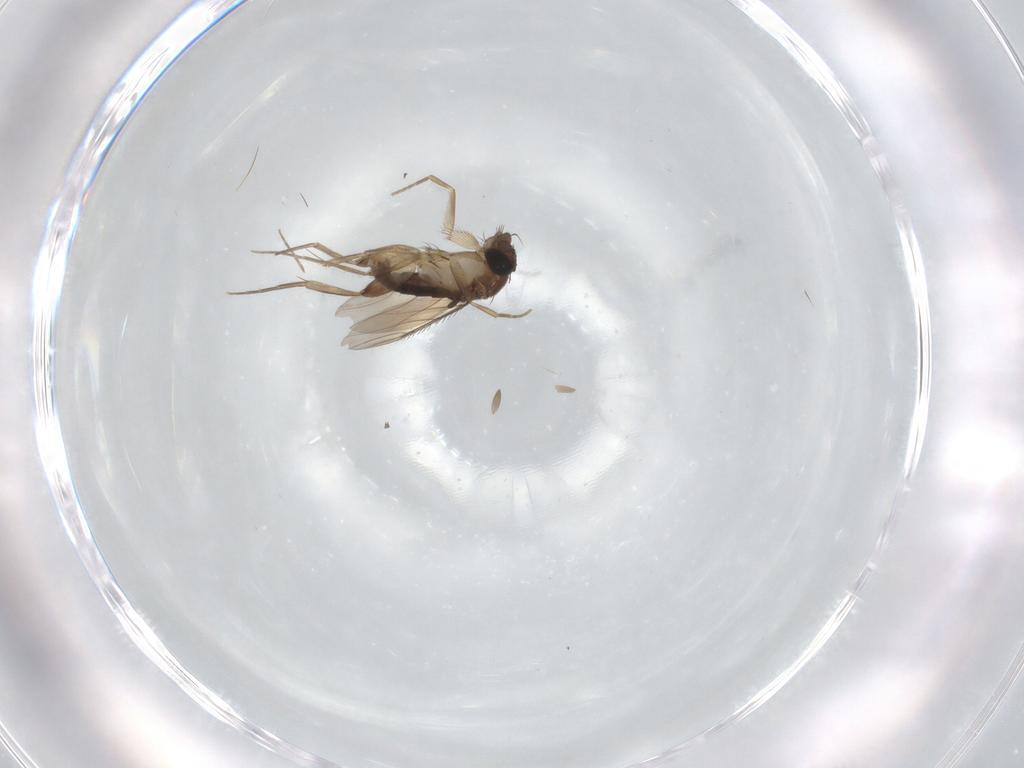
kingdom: Animalia
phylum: Arthropoda
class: Insecta
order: Diptera
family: Phoridae
